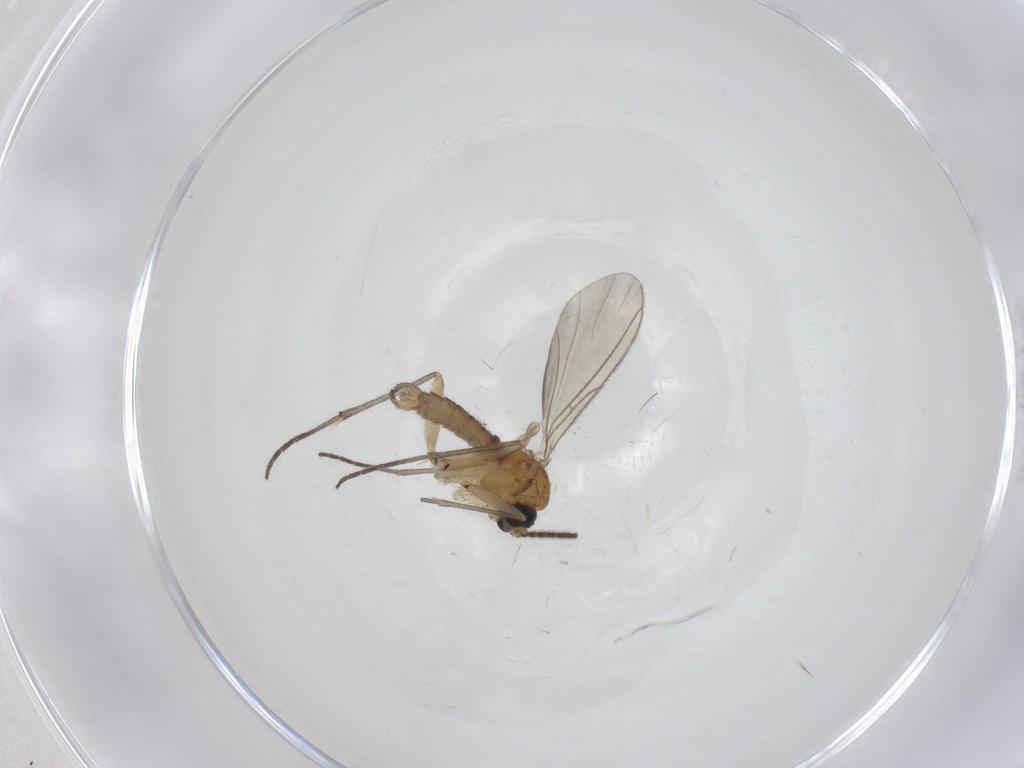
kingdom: Animalia
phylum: Arthropoda
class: Insecta
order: Diptera
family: Sciaridae
